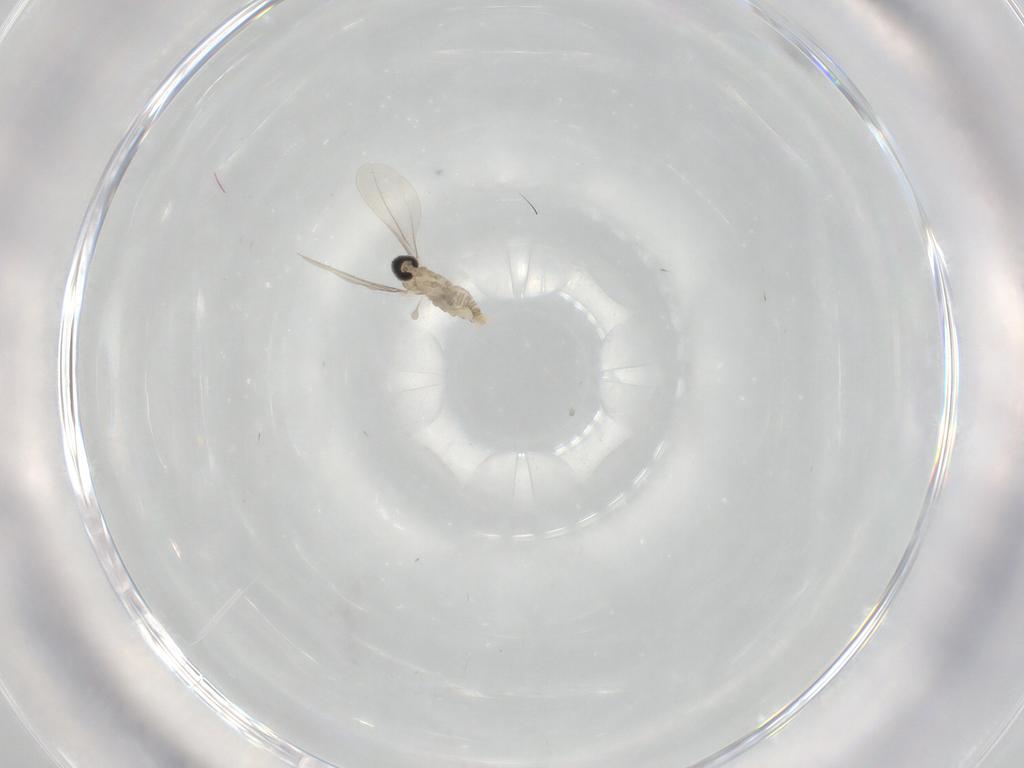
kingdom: Animalia
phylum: Arthropoda
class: Insecta
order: Diptera
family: Cecidomyiidae
